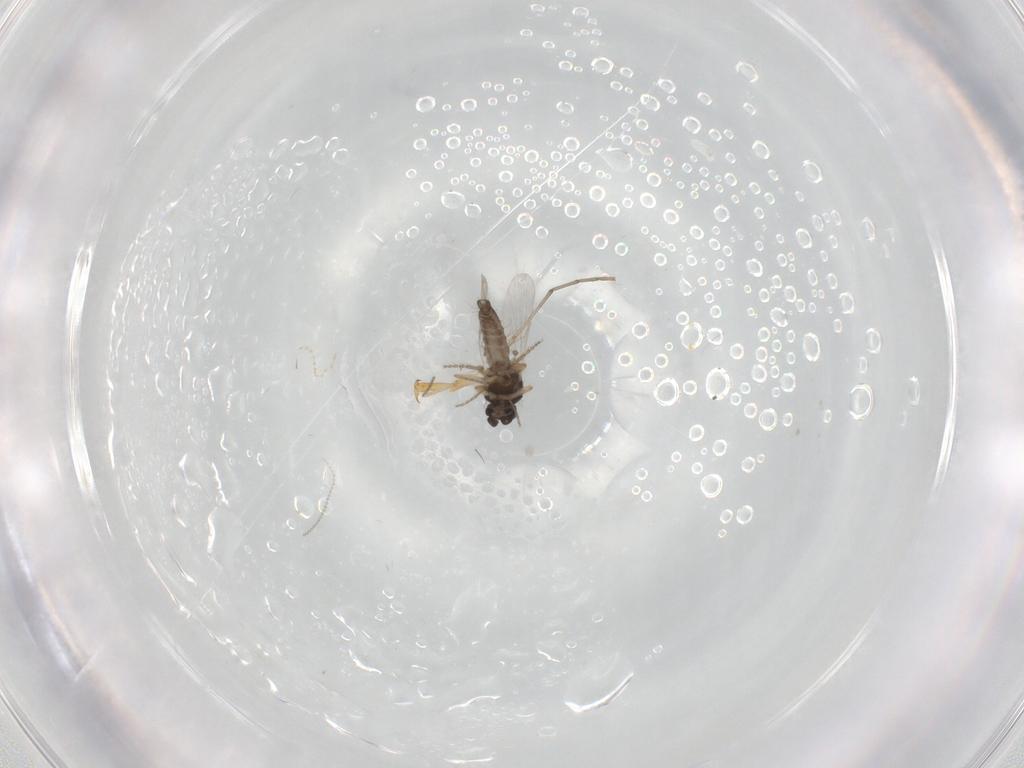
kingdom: Animalia
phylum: Arthropoda
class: Insecta
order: Diptera
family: Ceratopogonidae
